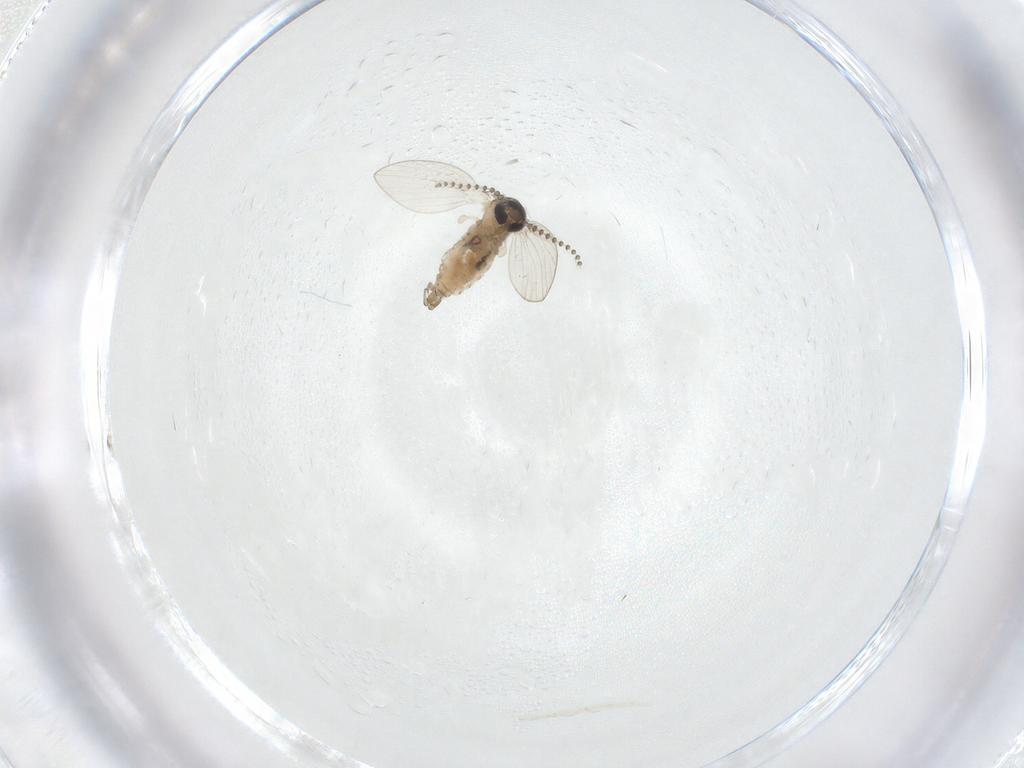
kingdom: Animalia
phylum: Arthropoda
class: Insecta
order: Diptera
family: Psychodidae
